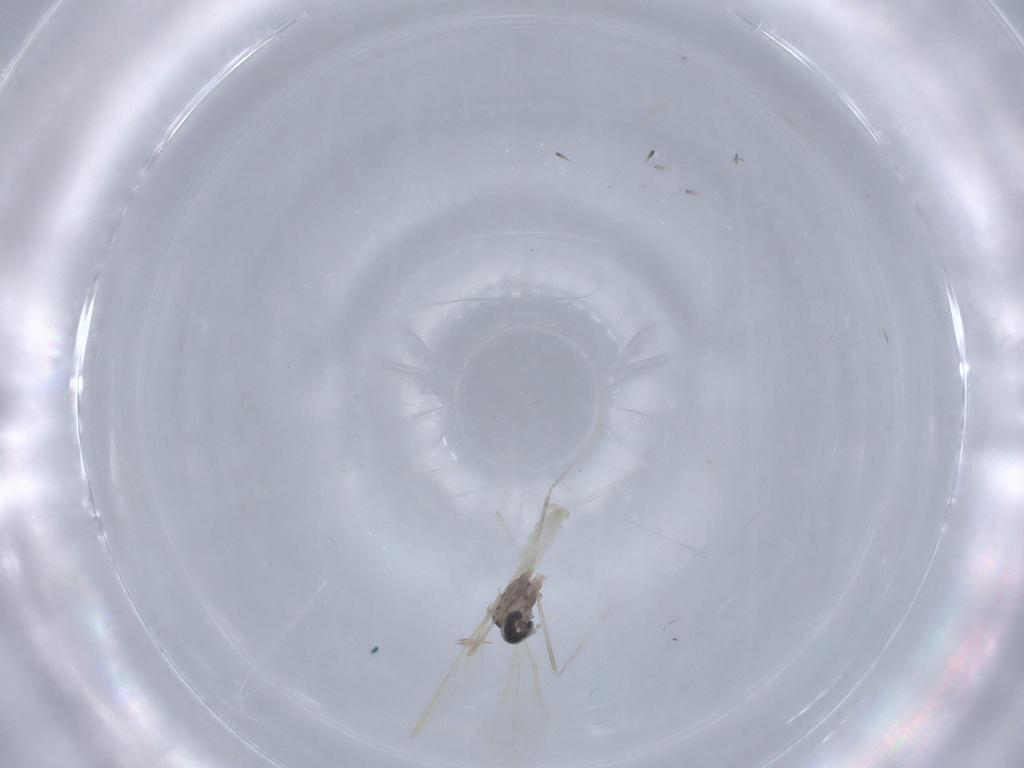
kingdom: Animalia
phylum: Arthropoda
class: Insecta
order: Diptera
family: Cecidomyiidae
